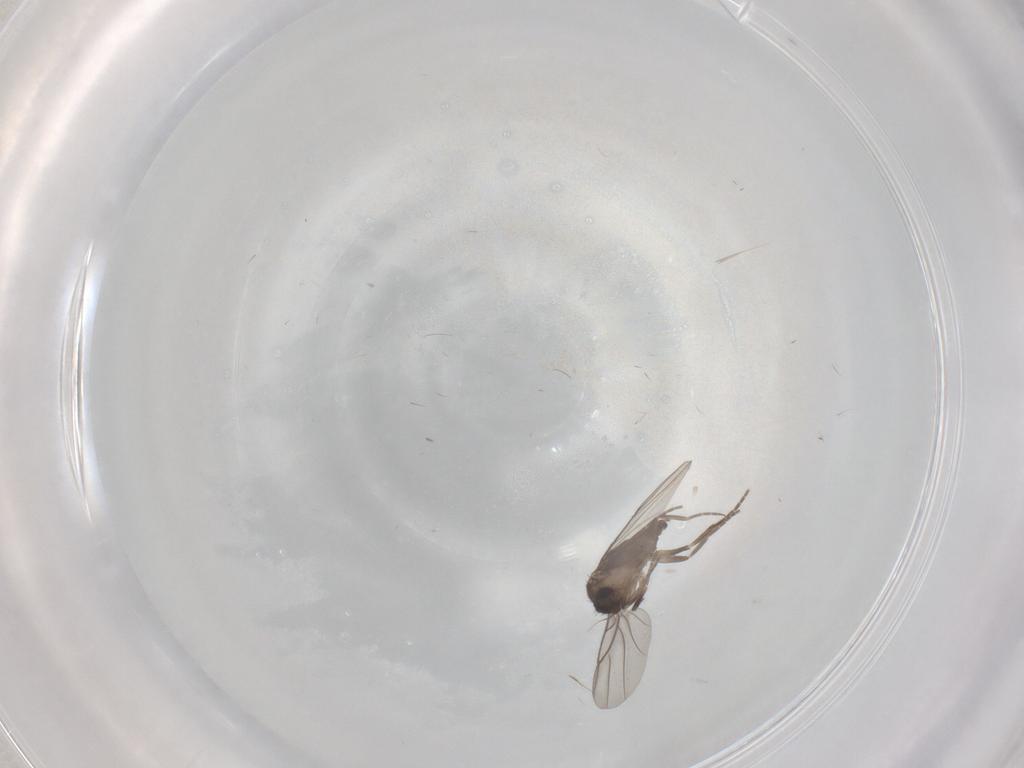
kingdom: Animalia
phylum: Arthropoda
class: Insecta
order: Diptera
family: Phoridae
